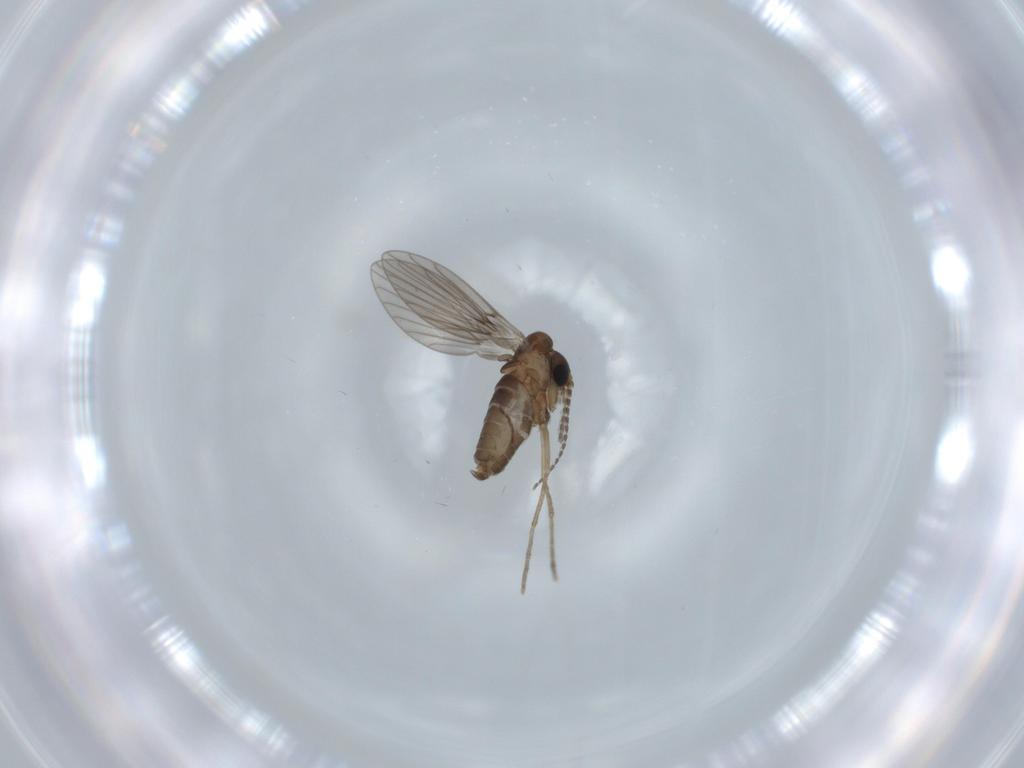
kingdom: Animalia
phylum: Arthropoda
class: Insecta
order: Diptera
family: Psychodidae
